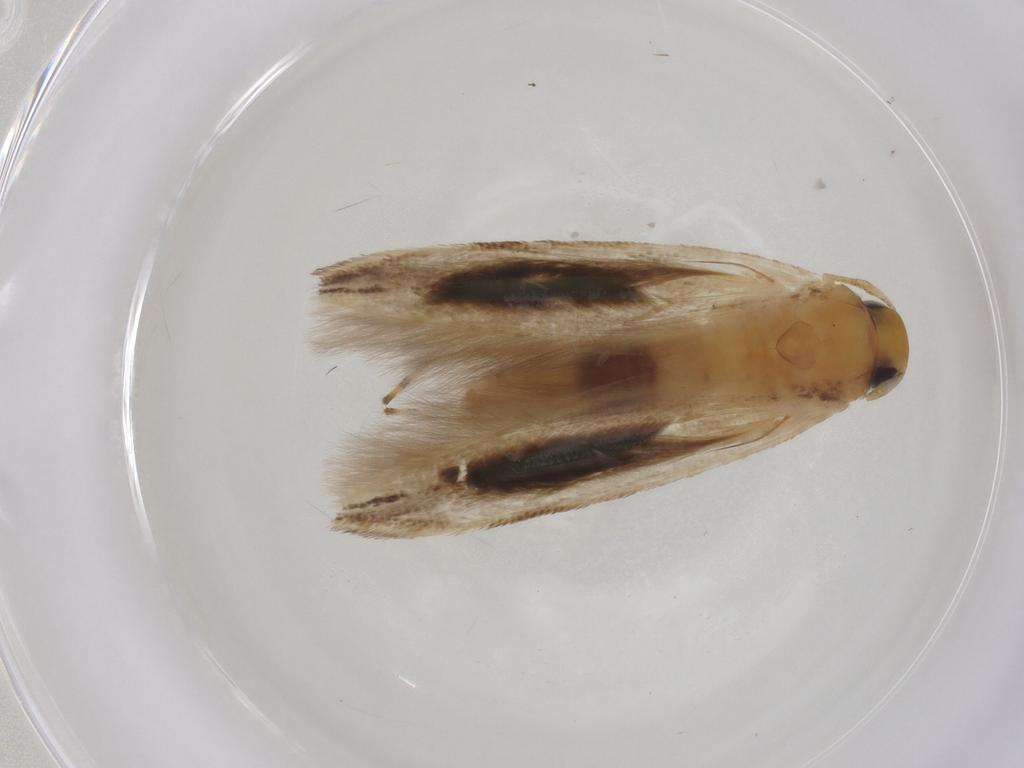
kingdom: Animalia
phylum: Arthropoda
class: Insecta
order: Lepidoptera
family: Momphidae
